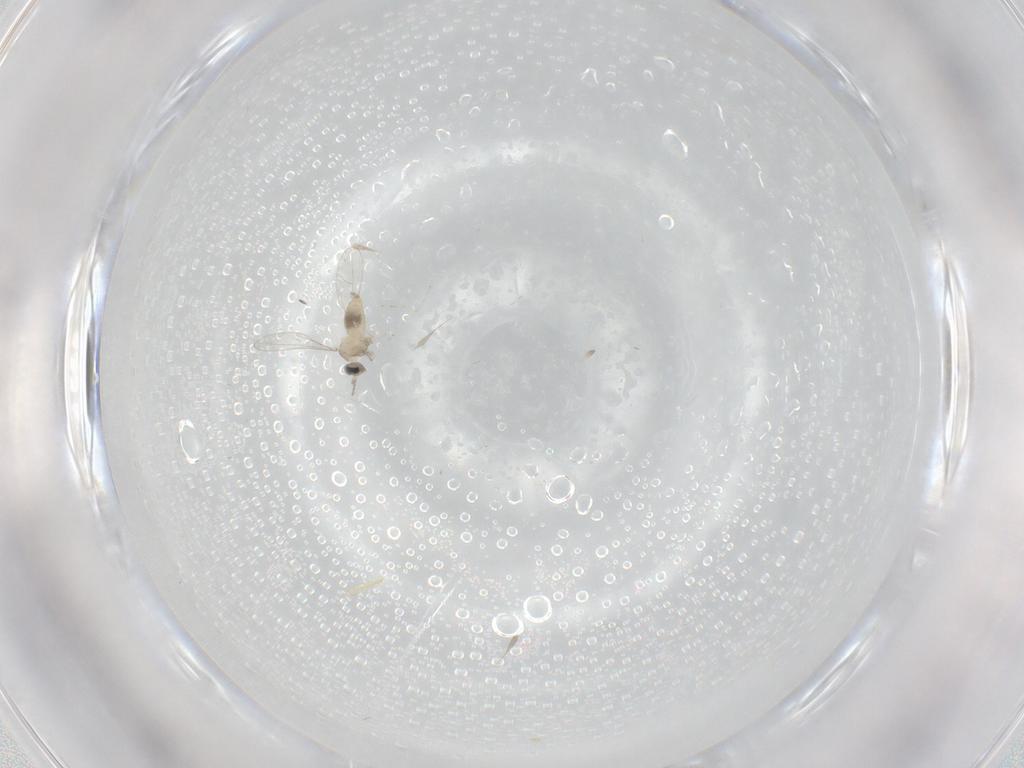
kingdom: Animalia
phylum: Arthropoda
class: Insecta
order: Diptera
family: Cecidomyiidae
